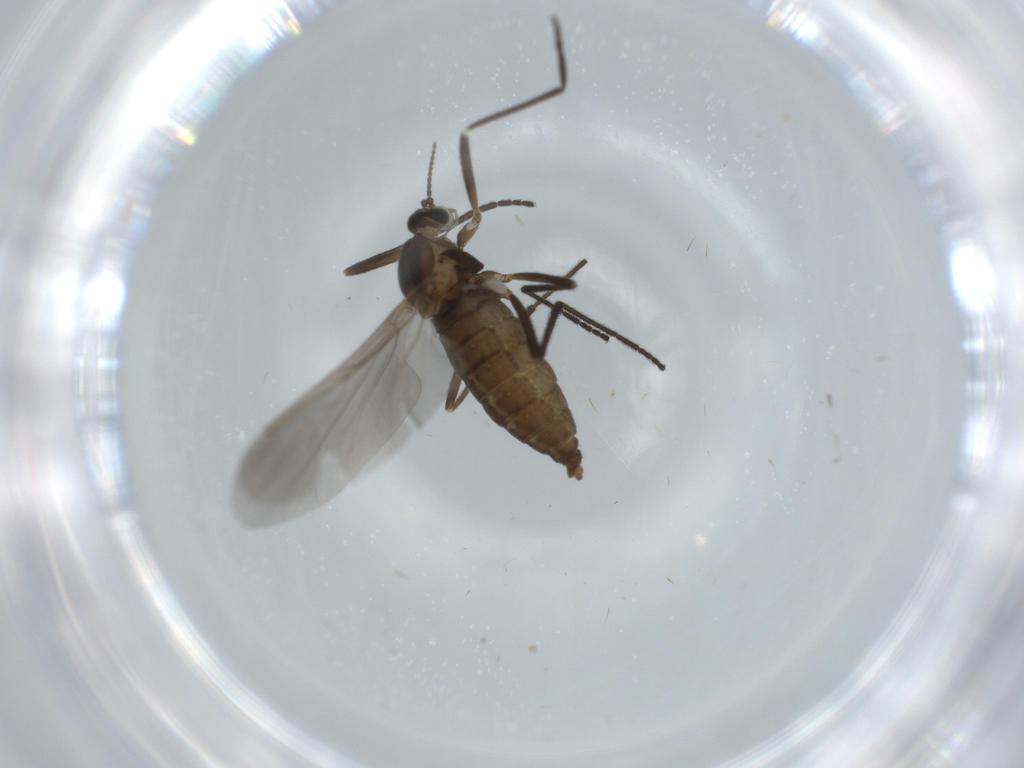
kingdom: Animalia
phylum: Arthropoda
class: Insecta
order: Diptera
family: Cecidomyiidae
